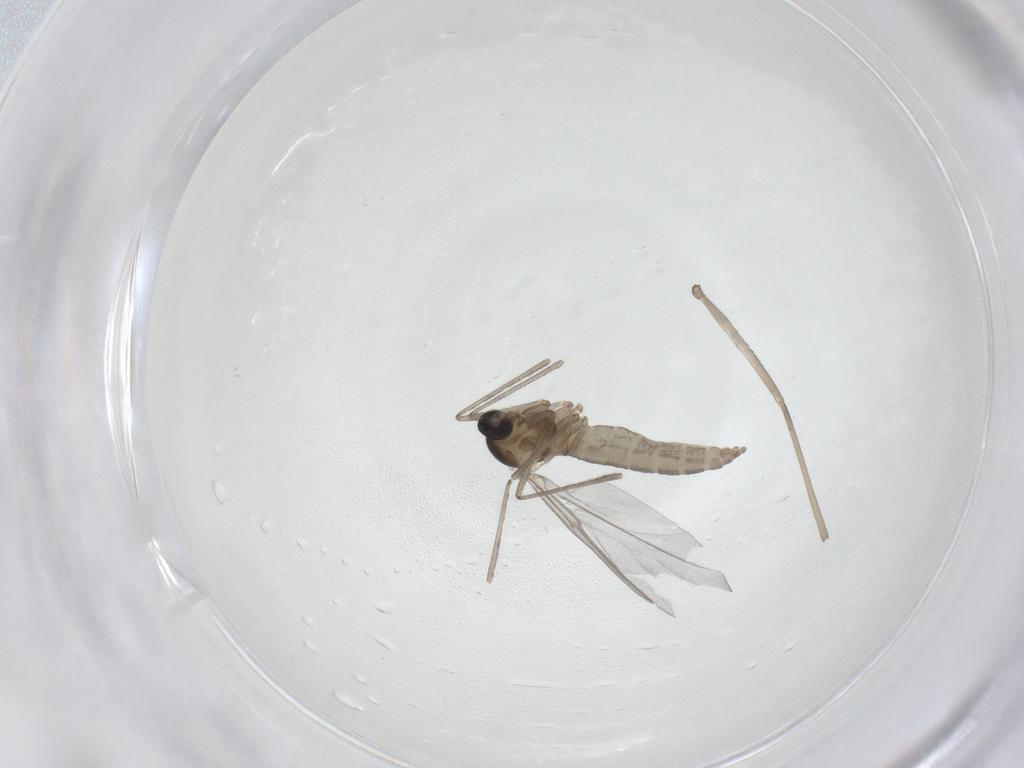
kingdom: Animalia
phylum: Arthropoda
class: Insecta
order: Diptera
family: Cecidomyiidae
